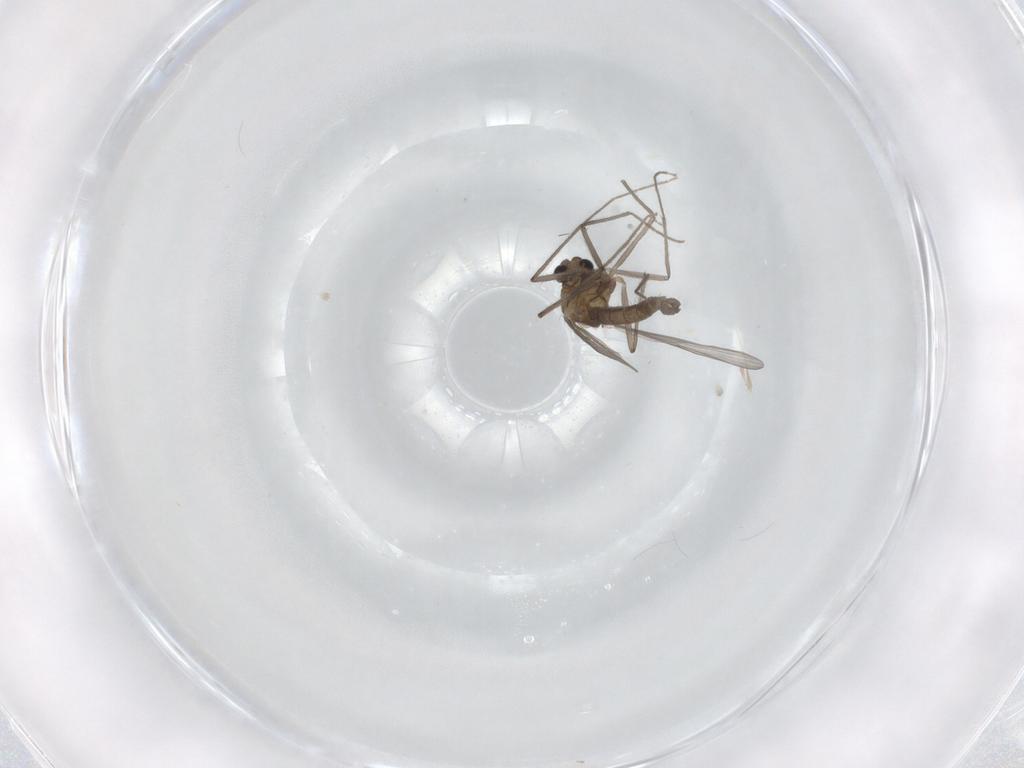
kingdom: Animalia
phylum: Arthropoda
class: Insecta
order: Diptera
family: Chironomidae
